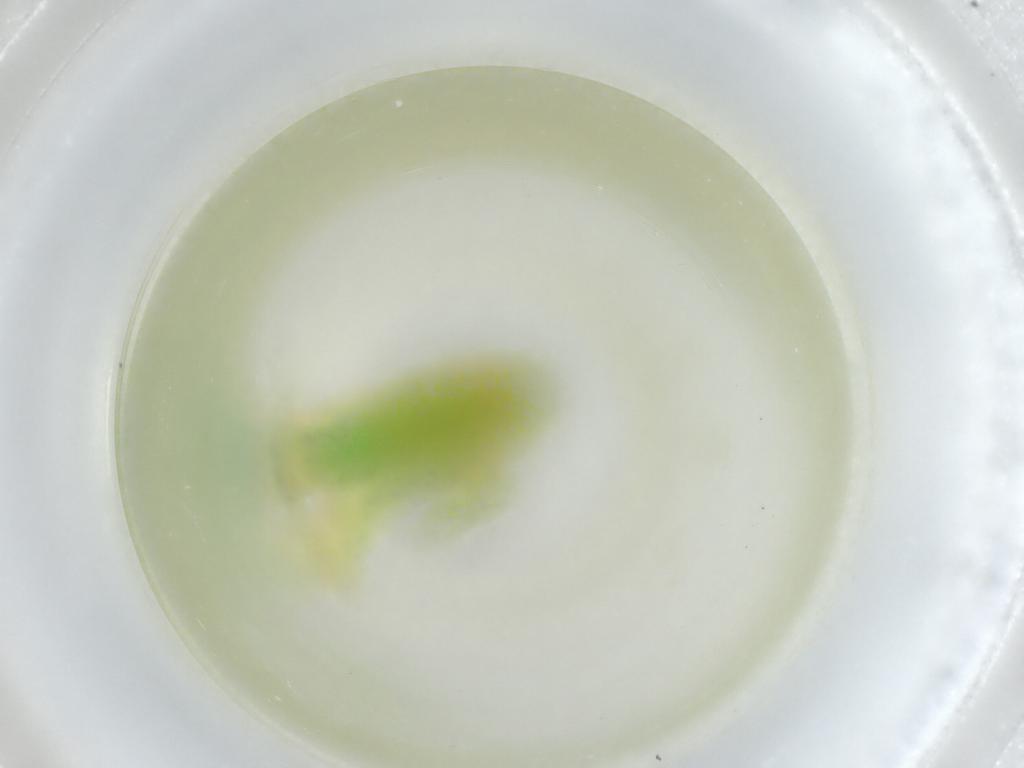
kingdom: Animalia
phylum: Arthropoda
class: Insecta
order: Hemiptera
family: Cicadellidae
